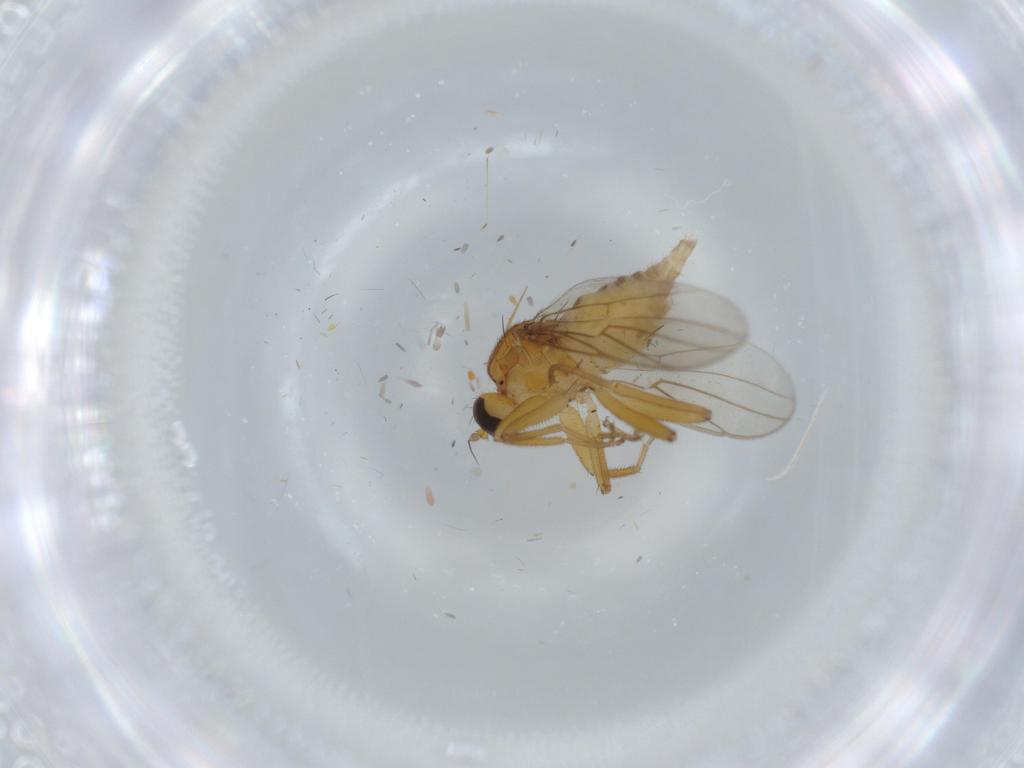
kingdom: Animalia
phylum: Arthropoda
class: Insecta
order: Diptera
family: Hybotidae
